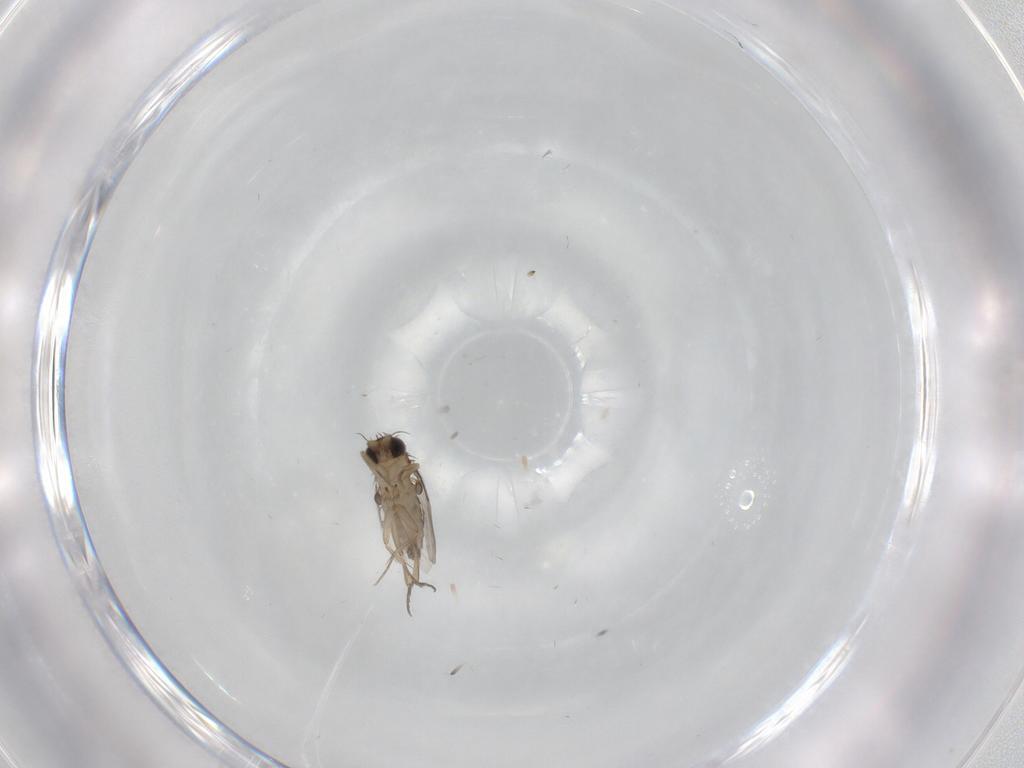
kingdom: Animalia
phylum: Arthropoda
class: Insecta
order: Diptera
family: Phoridae
